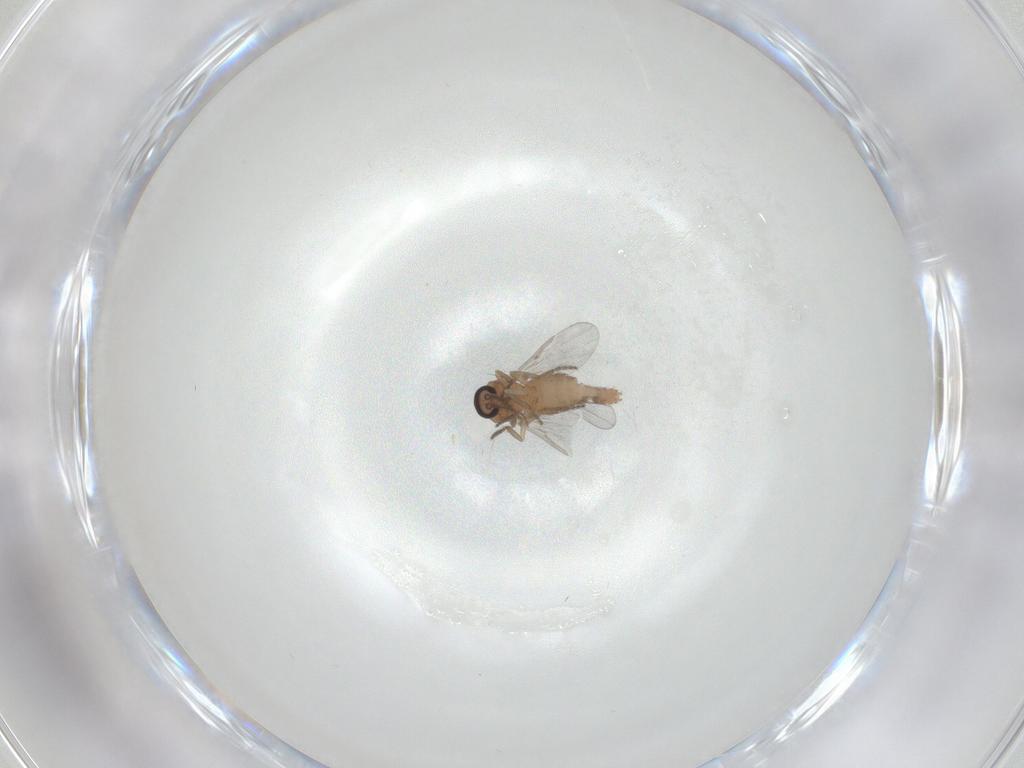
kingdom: Animalia
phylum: Arthropoda
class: Insecta
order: Diptera
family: Ceratopogonidae
